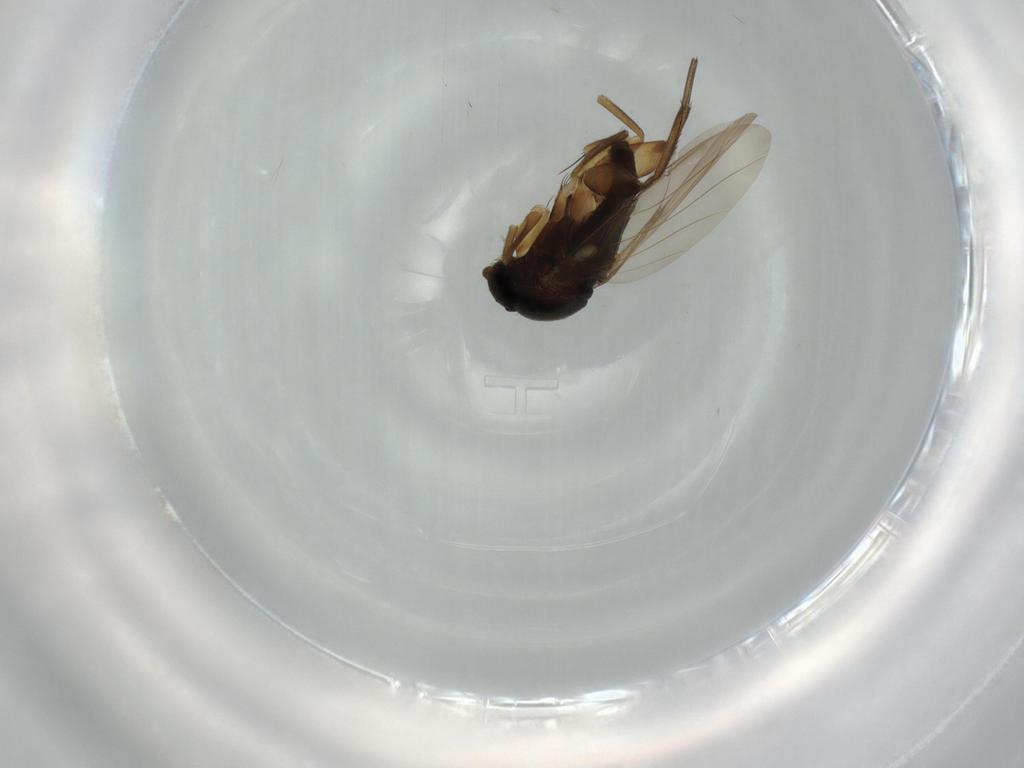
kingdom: Animalia
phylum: Arthropoda
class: Insecta
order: Diptera
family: Phoridae
